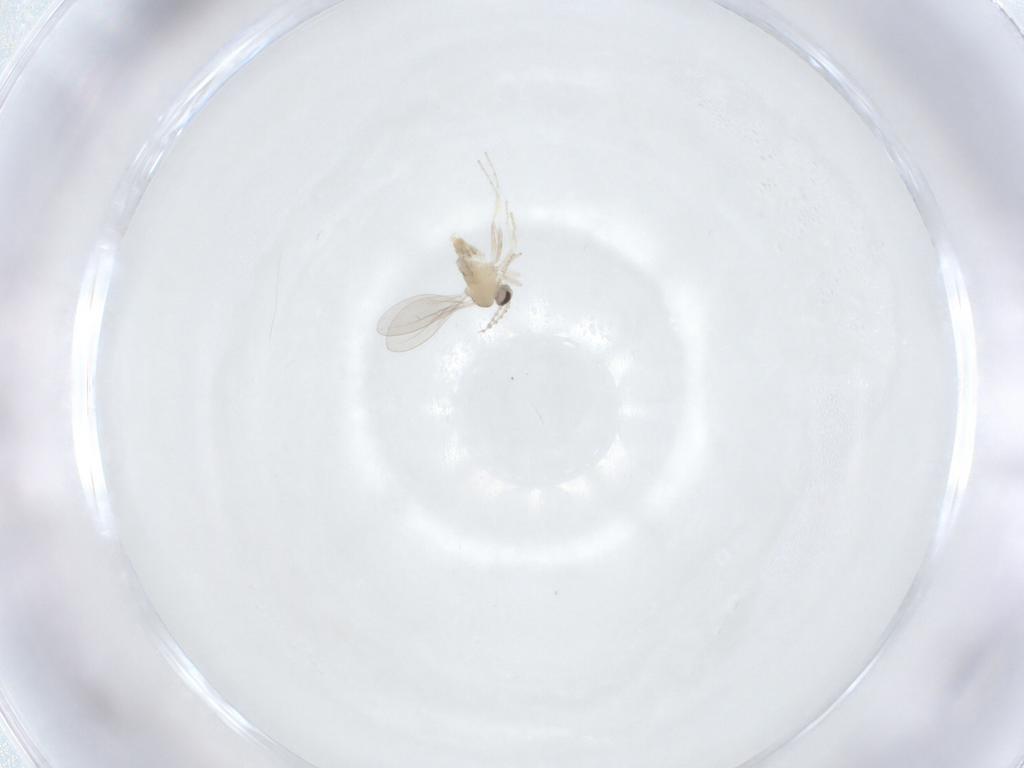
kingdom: Animalia
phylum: Arthropoda
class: Insecta
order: Diptera
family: Cecidomyiidae
